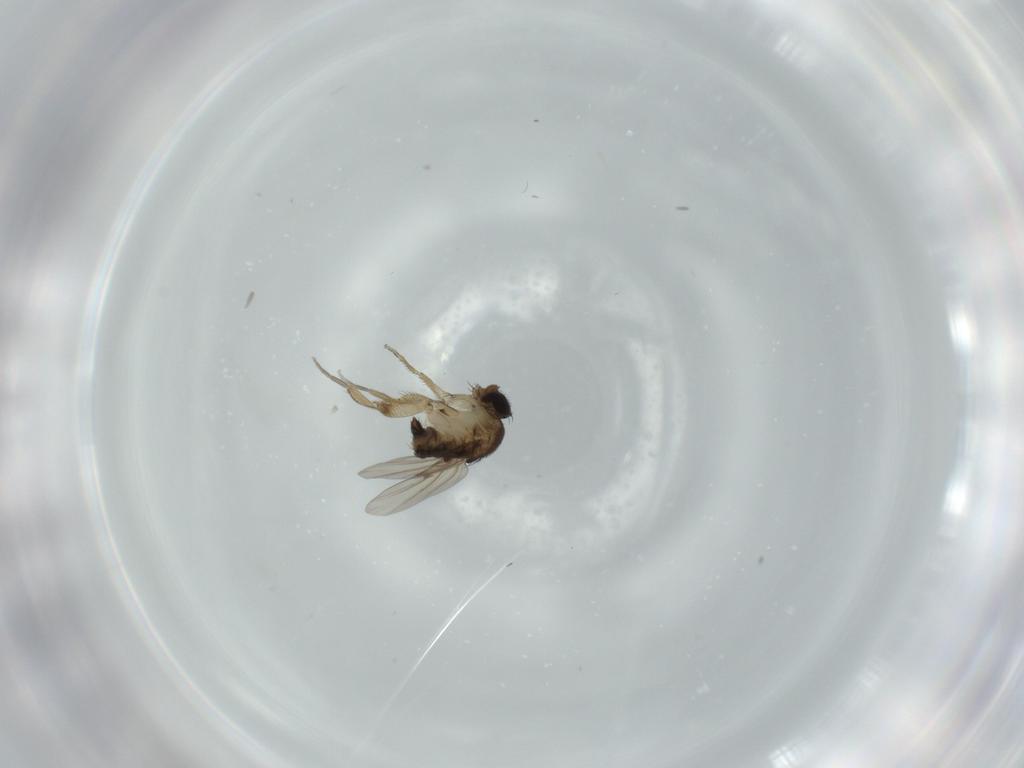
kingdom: Animalia
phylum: Arthropoda
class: Insecta
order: Diptera
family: Phoridae
